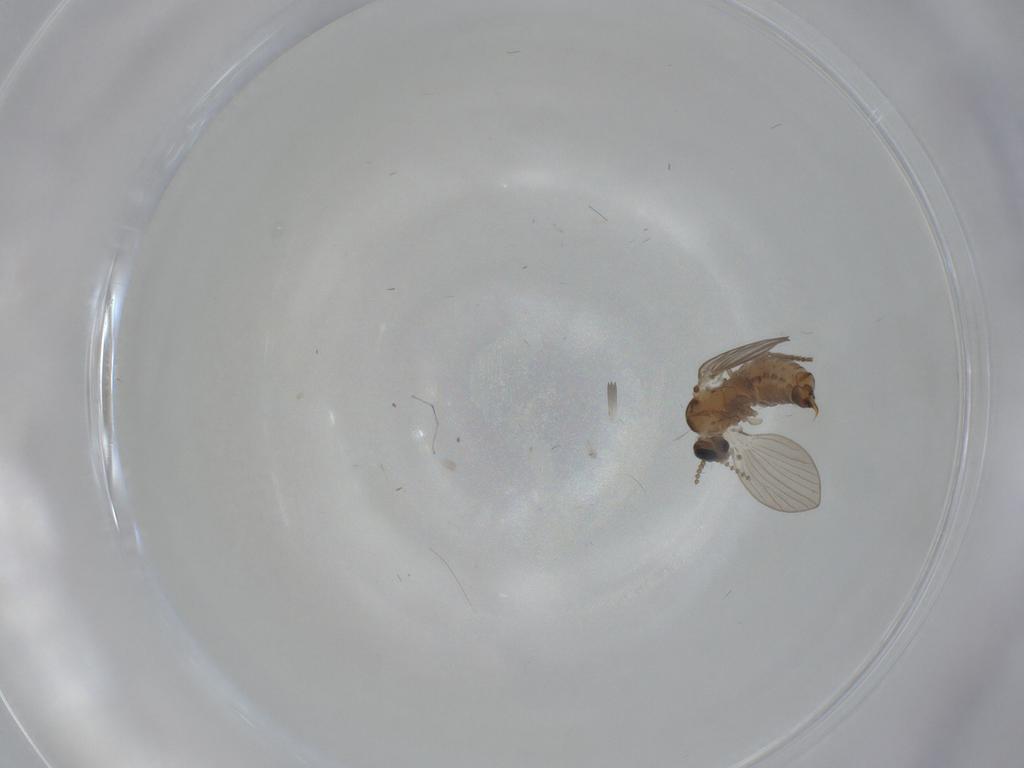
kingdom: Animalia
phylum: Arthropoda
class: Insecta
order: Diptera
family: Psychodidae
